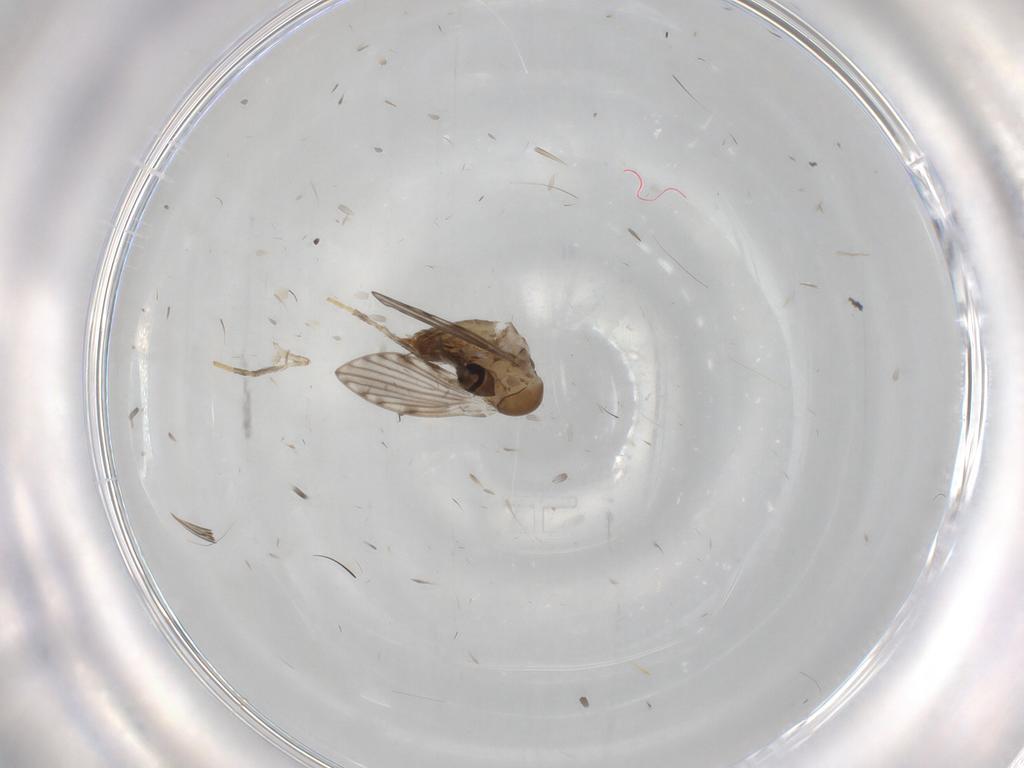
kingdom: Animalia
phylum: Arthropoda
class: Insecta
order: Diptera
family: Psychodidae
